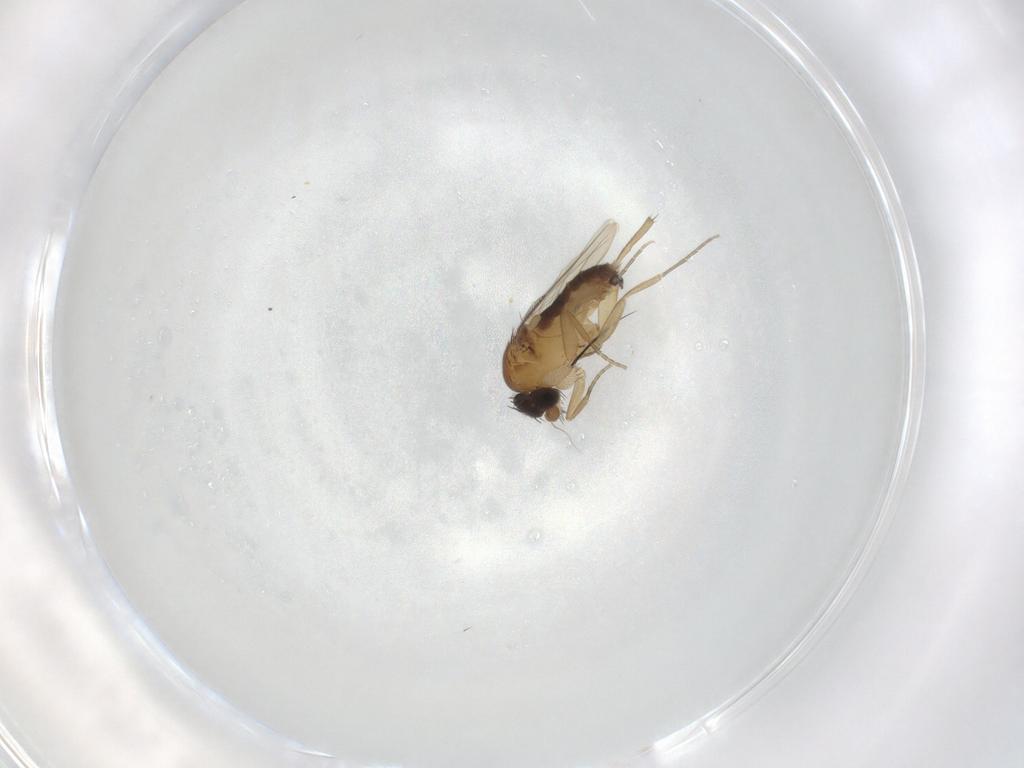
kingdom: Animalia
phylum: Arthropoda
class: Insecta
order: Diptera
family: Phoridae
